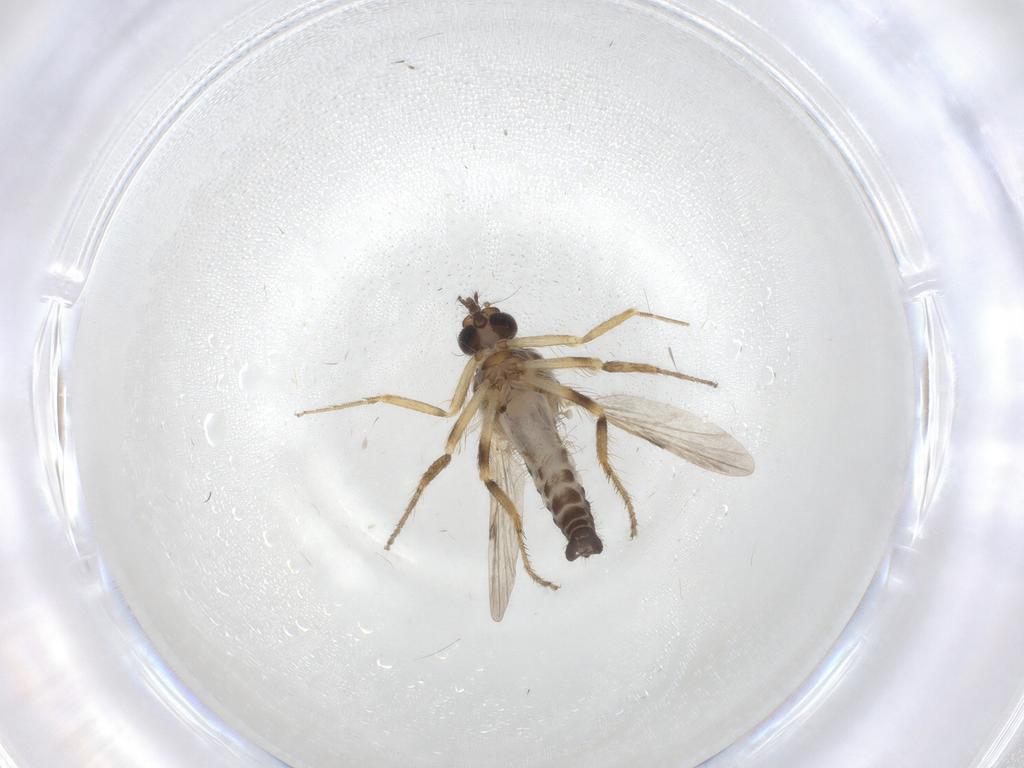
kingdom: Animalia
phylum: Arthropoda
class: Insecta
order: Diptera
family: Ceratopogonidae
